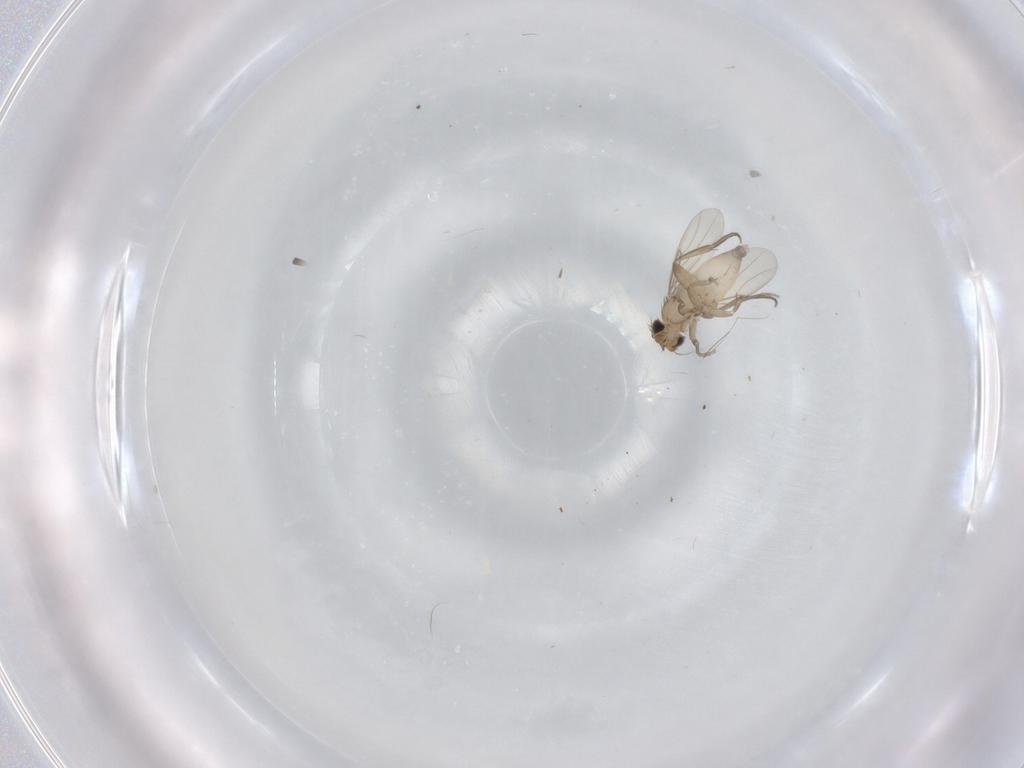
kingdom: Animalia
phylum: Arthropoda
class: Insecta
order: Diptera
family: Phoridae
